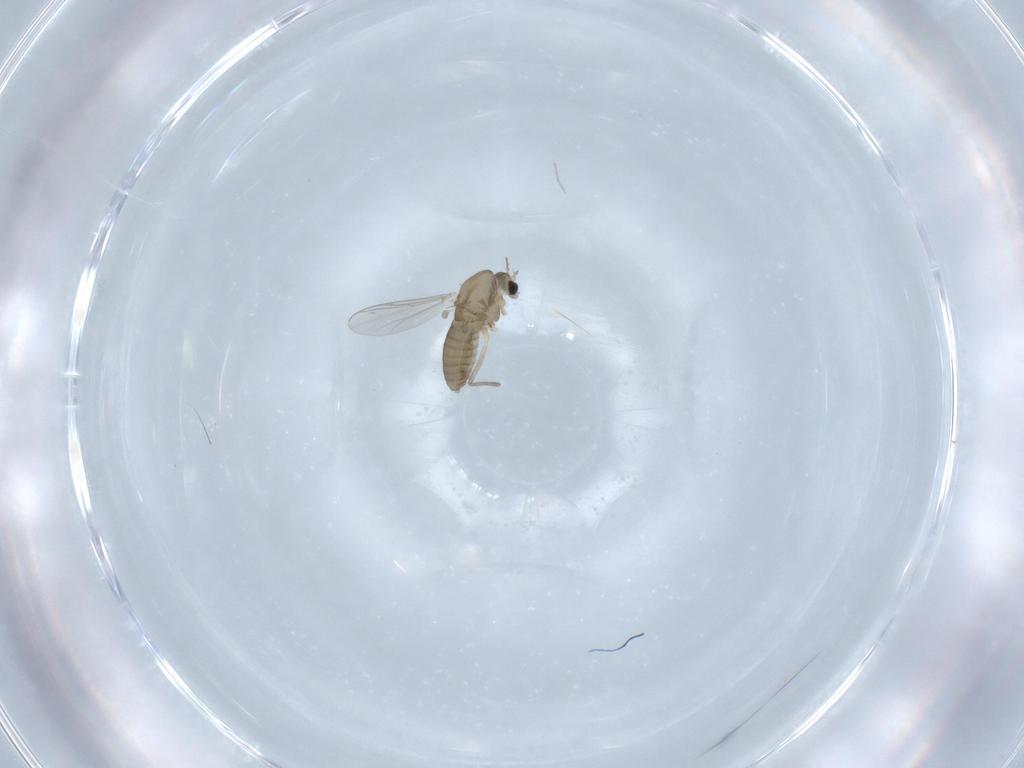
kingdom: Animalia
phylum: Arthropoda
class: Insecta
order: Diptera
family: Chironomidae
